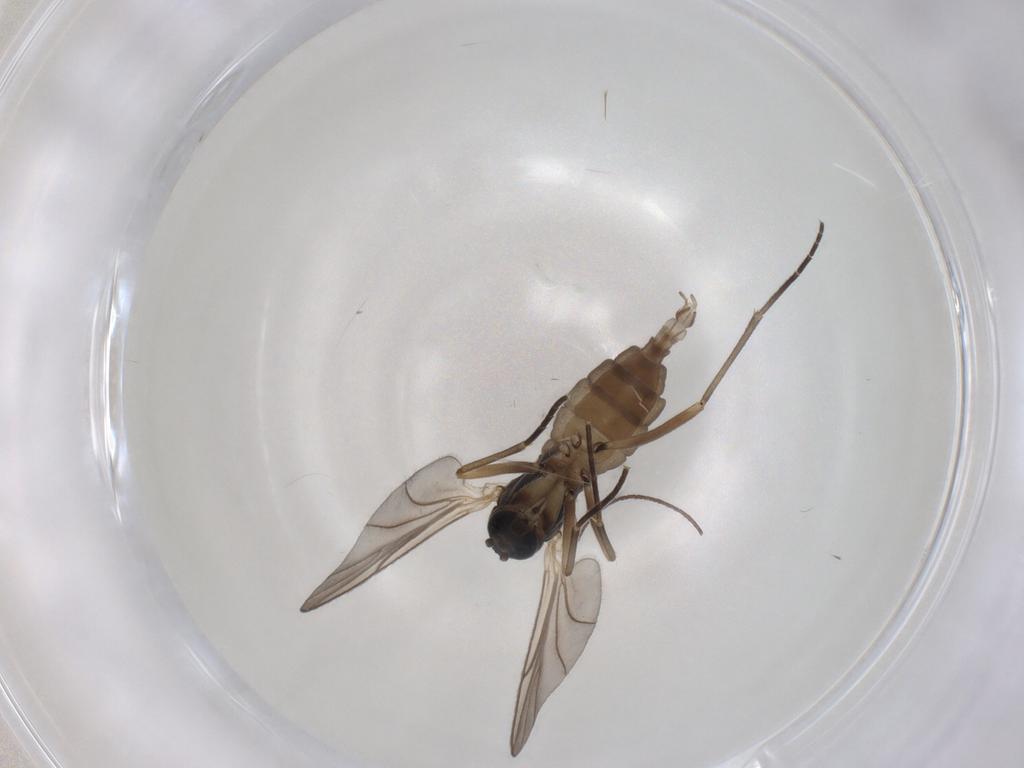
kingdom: Animalia
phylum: Arthropoda
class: Insecta
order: Diptera
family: Sciaridae
